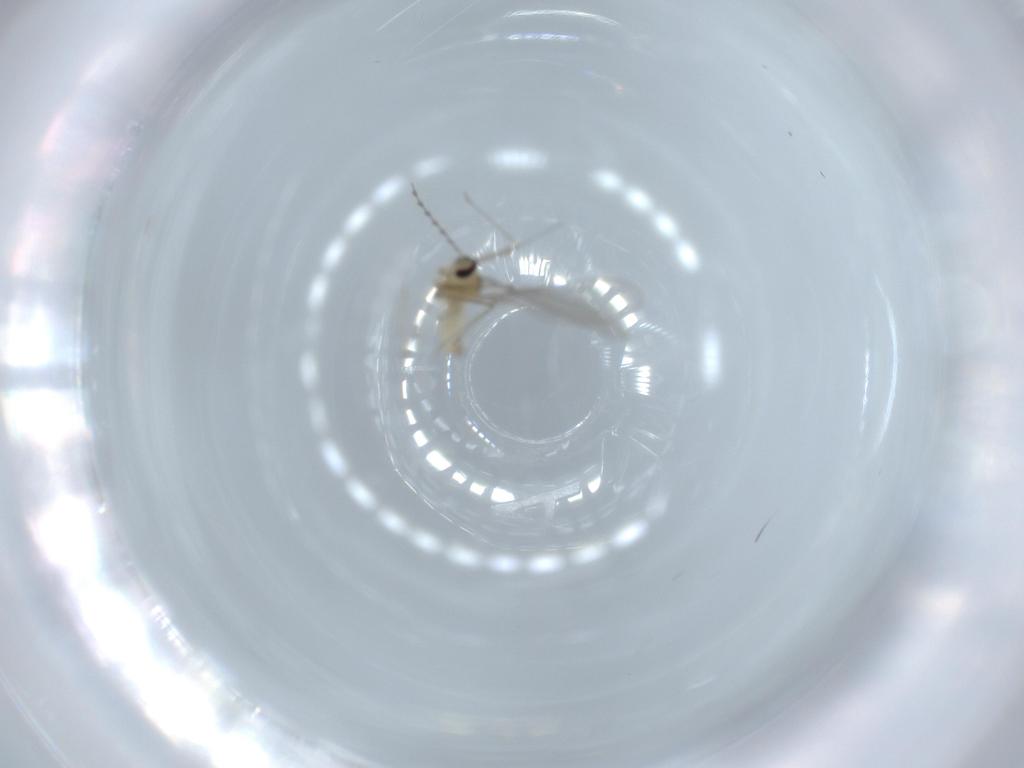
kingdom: Animalia
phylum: Arthropoda
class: Insecta
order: Diptera
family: Cecidomyiidae
